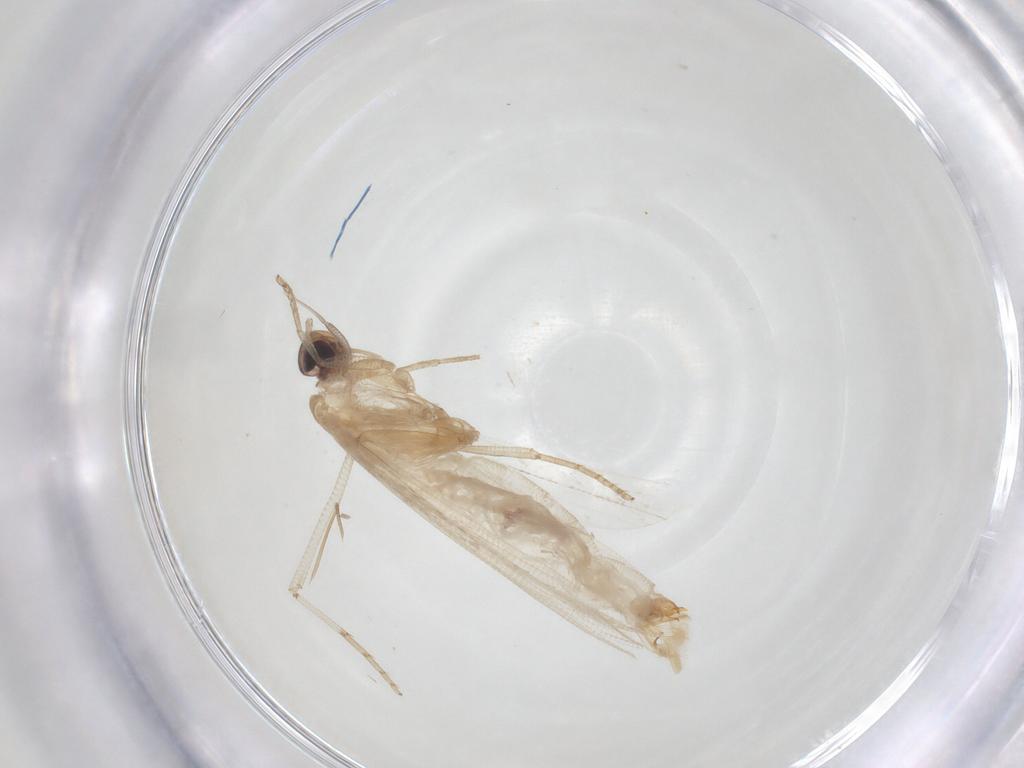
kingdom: Animalia
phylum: Arthropoda
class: Insecta
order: Lepidoptera
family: Gelechiidae
